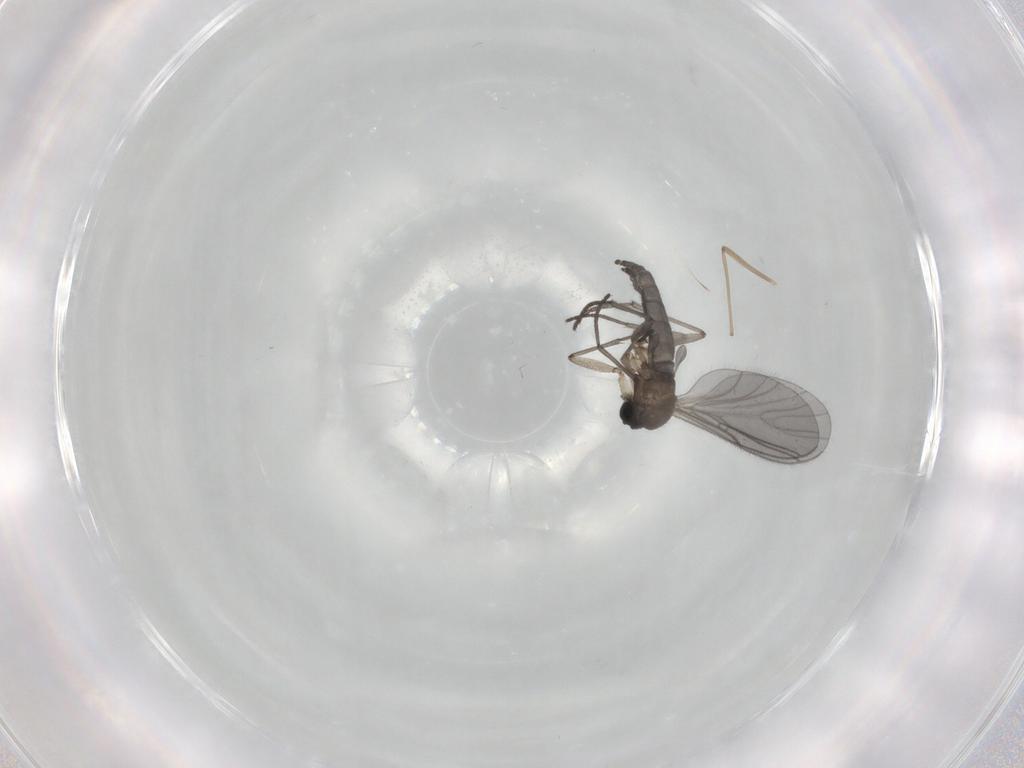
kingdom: Animalia
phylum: Arthropoda
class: Insecta
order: Diptera
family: Sciaridae
